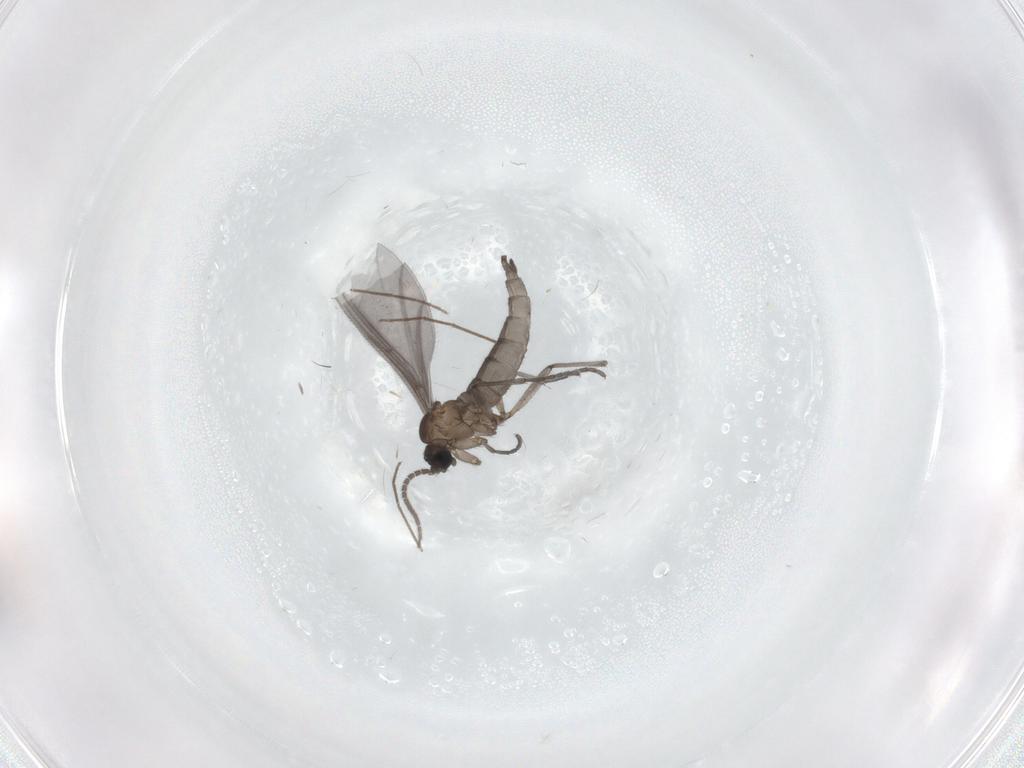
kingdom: Animalia
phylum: Arthropoda
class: Insecta
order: Diptera
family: Sciaridae
